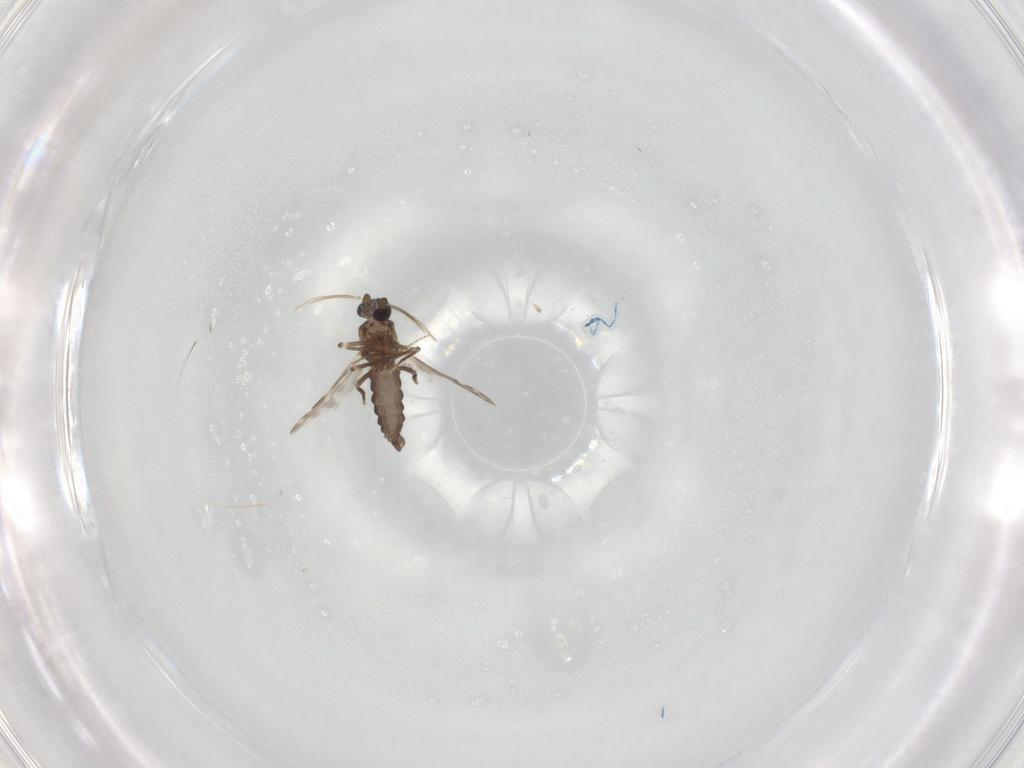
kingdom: Animalia
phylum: Arthropoda
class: Insecta
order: Diptera
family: Ceratopogonidae
